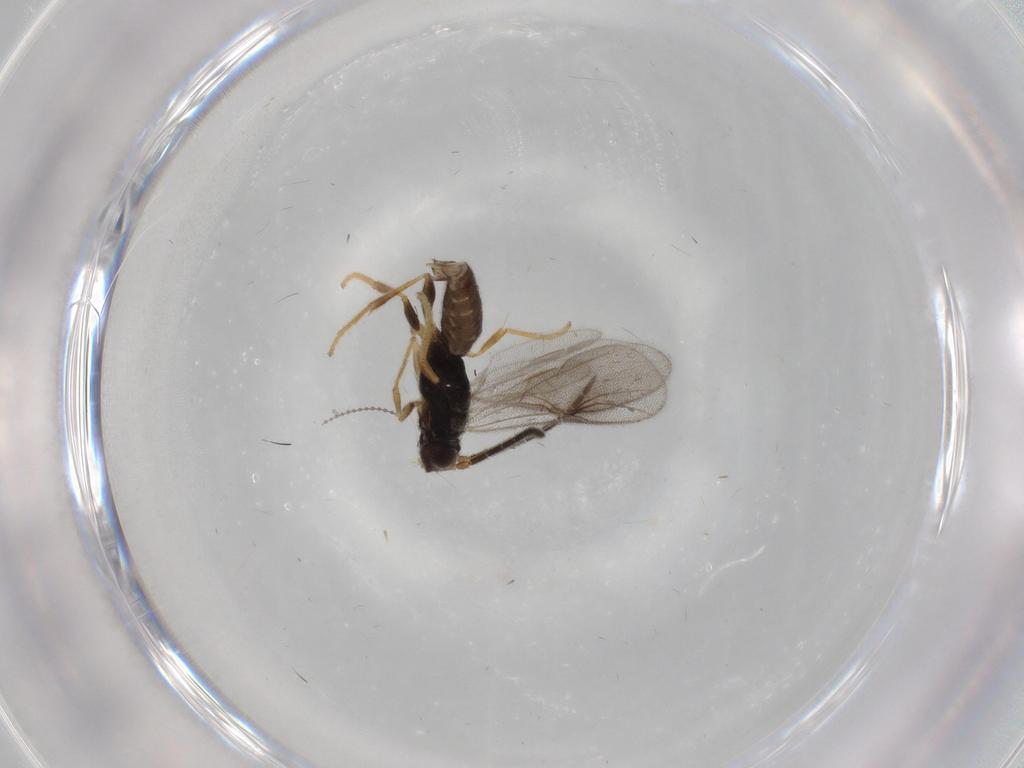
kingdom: Animalia
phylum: Arthropoda
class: Insecta
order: Hymenoptera
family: Dryinidae
